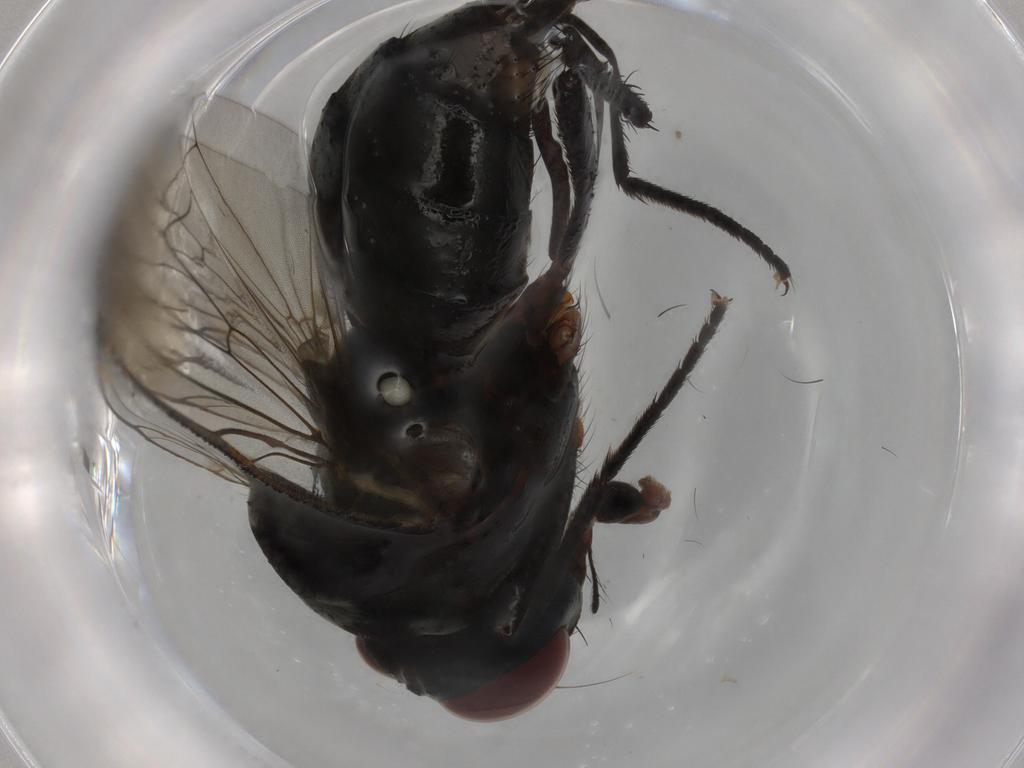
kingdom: Animalia
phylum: Arthropoda
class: Insecta
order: Diptera
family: Anthomyiidae
